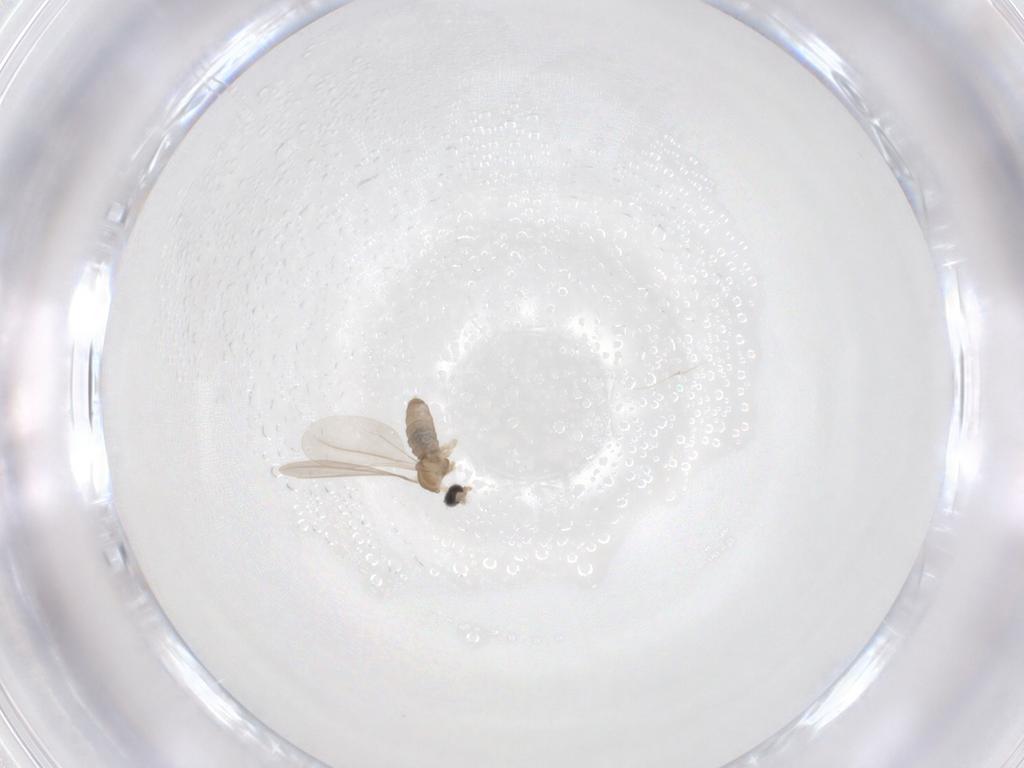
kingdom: Animalia
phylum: Arthropoda
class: Insecta
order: Diptera
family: Cecidomyiidae
